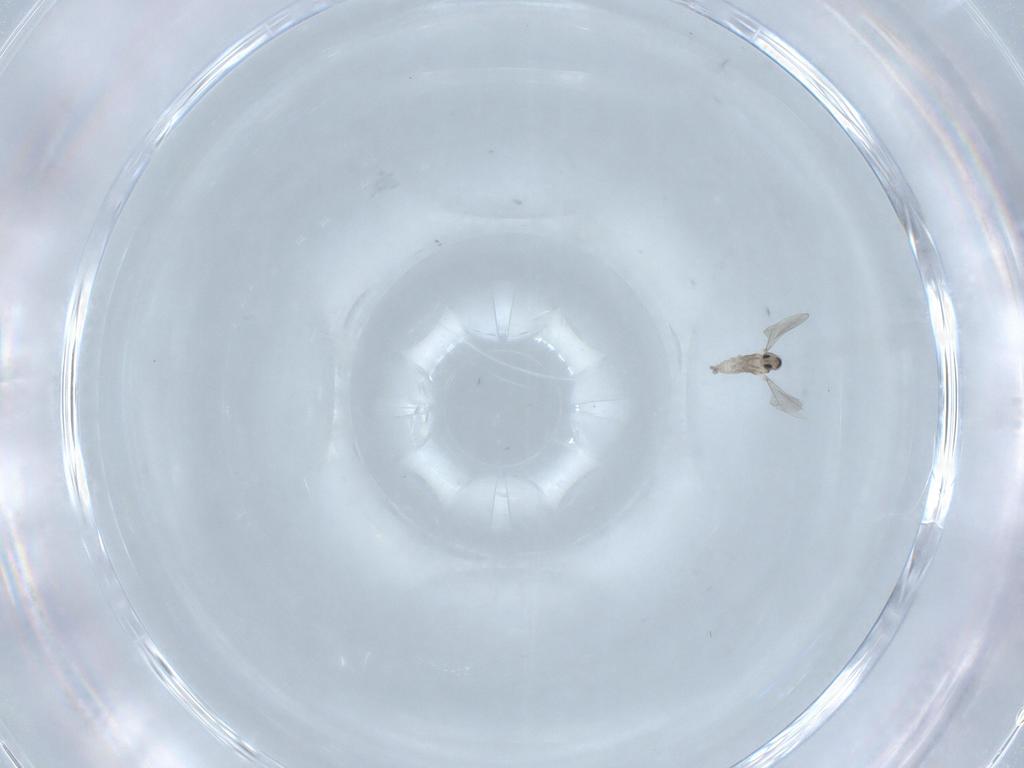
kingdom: Animalia
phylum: Arthropoda
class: Insecta
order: Diptera
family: Cecidomyiidae
